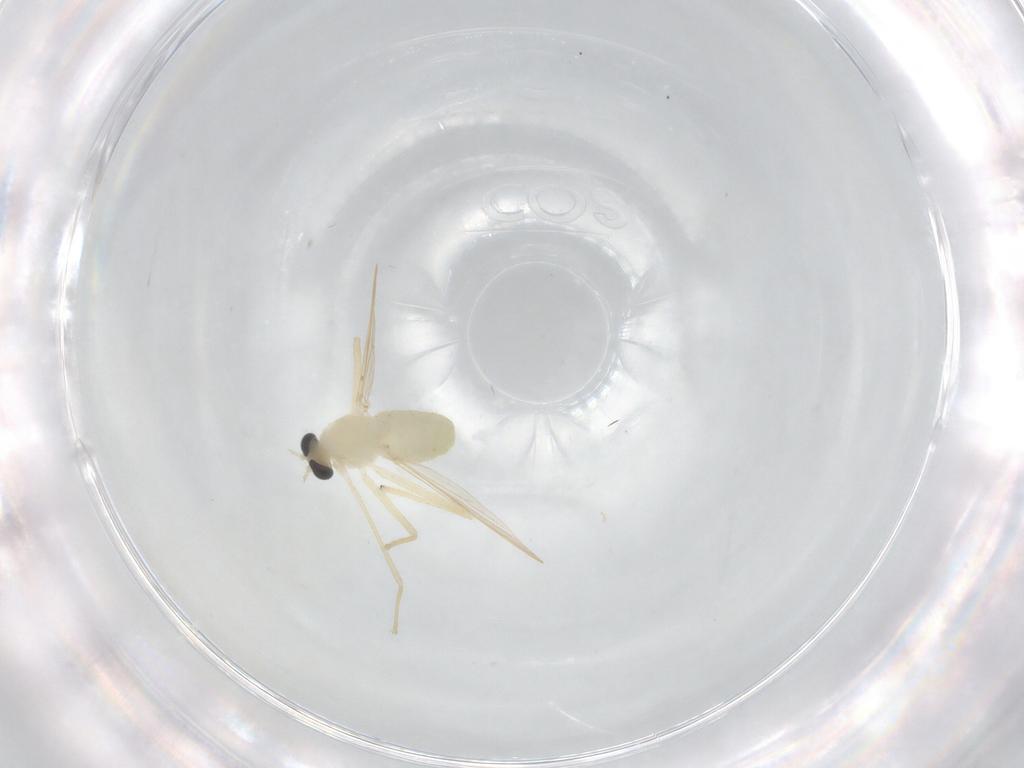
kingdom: Animalia
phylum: Arthropoda
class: Insecta
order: Diptera
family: Chironomidae
